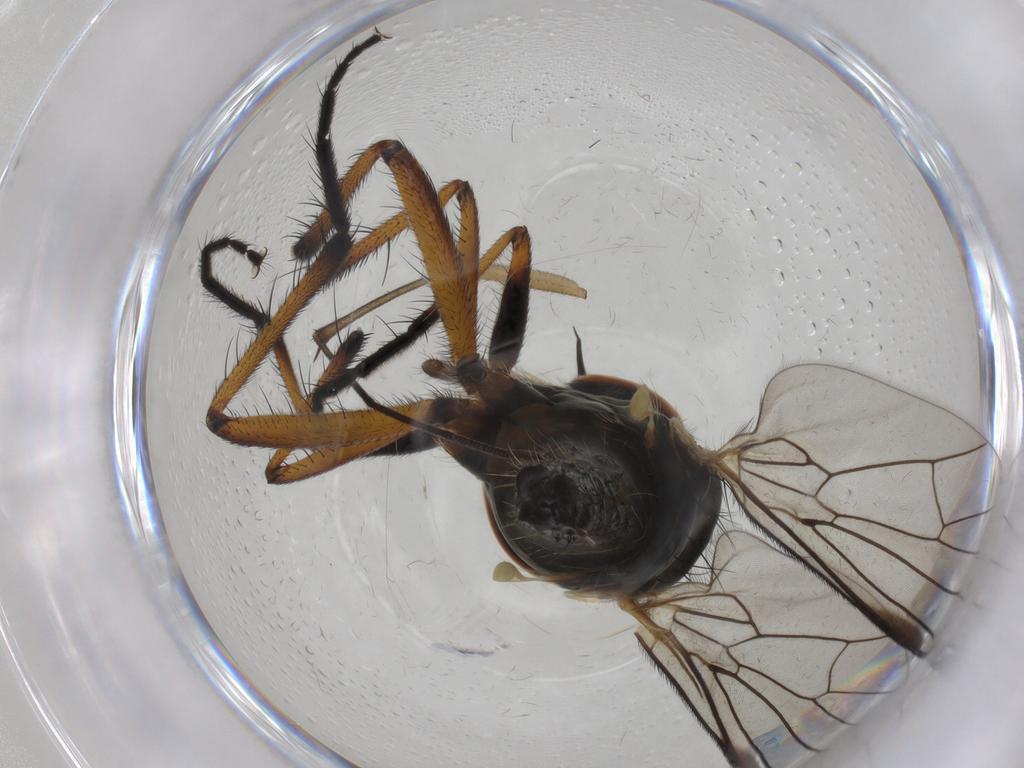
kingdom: Animalia
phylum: Arthropoda
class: Insecta
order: Diptera
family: Empididae
